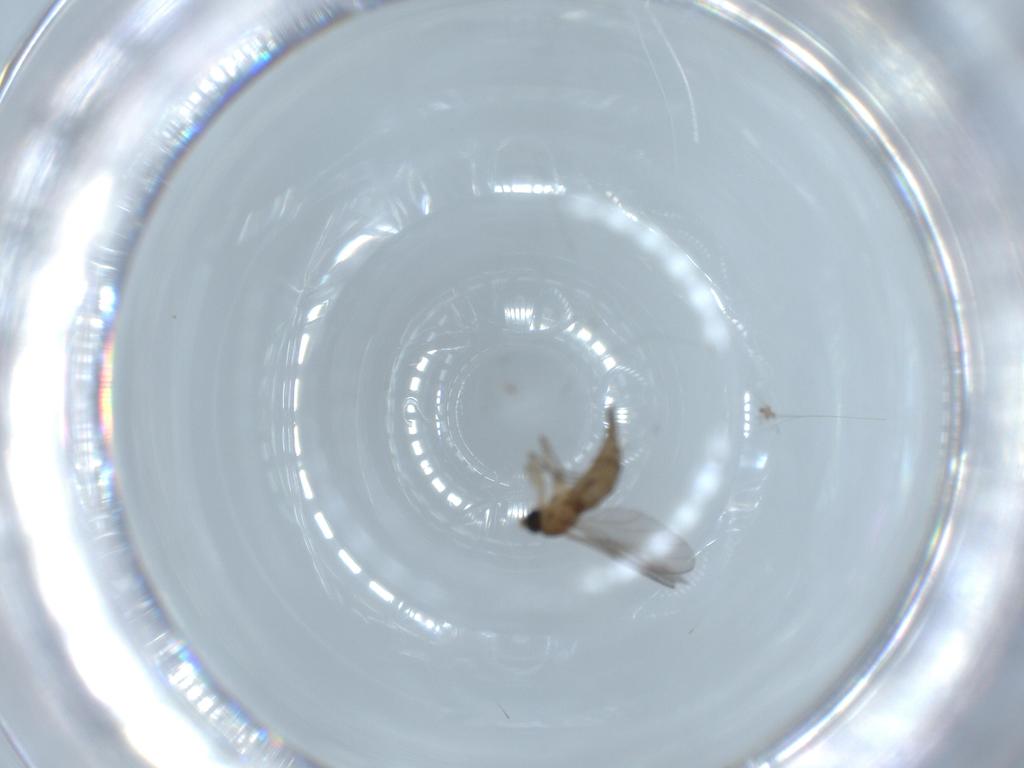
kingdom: Animalia
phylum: Arthropoda
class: Insecta
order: Diptera
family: Sciaridae
